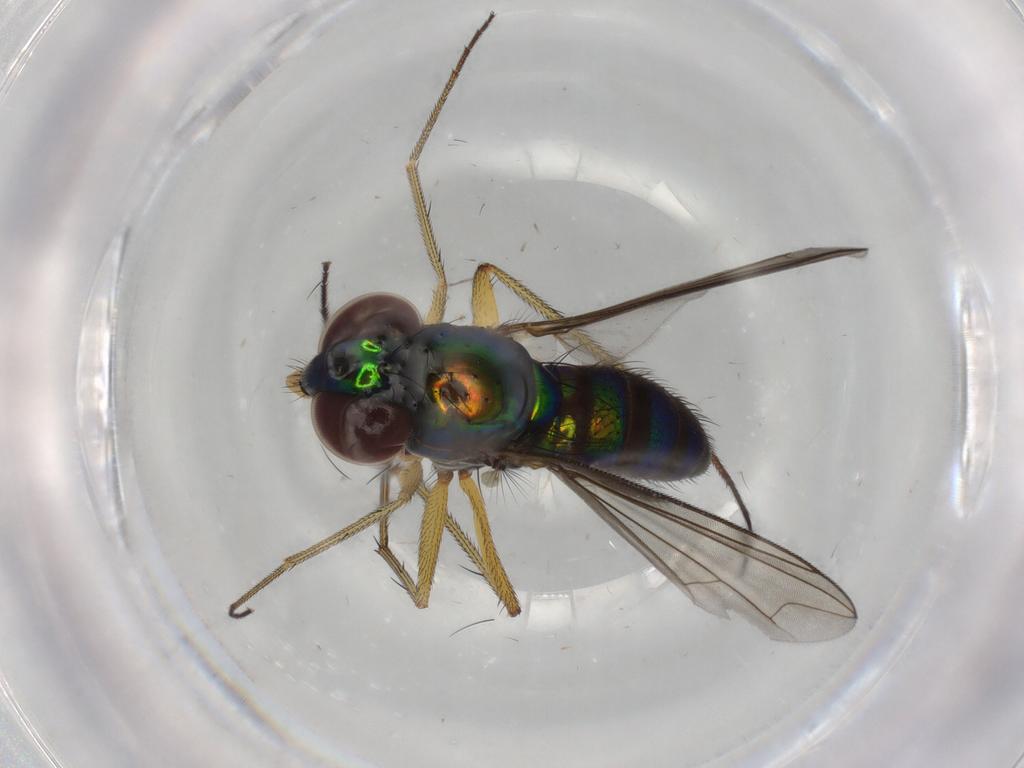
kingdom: Animalia
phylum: Arthropoda
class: Insecta
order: Diptera
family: Dolichopodidae
